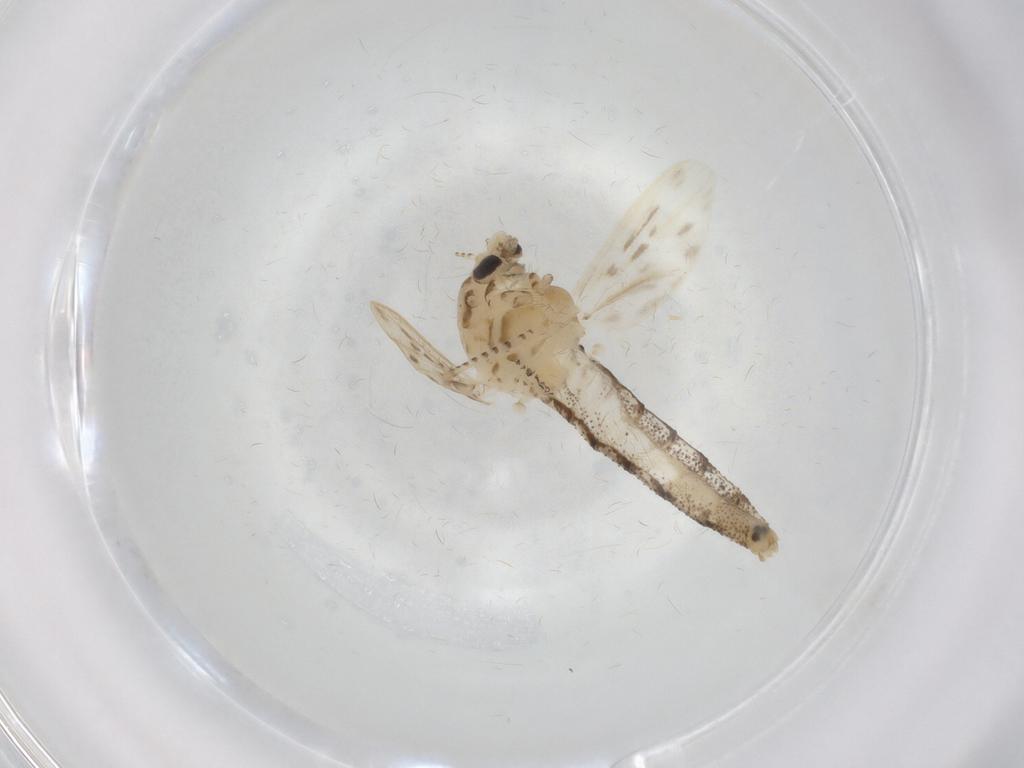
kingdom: Animalia
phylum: Arthropoda
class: Insecta
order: Diptera
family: Chaoboridae
